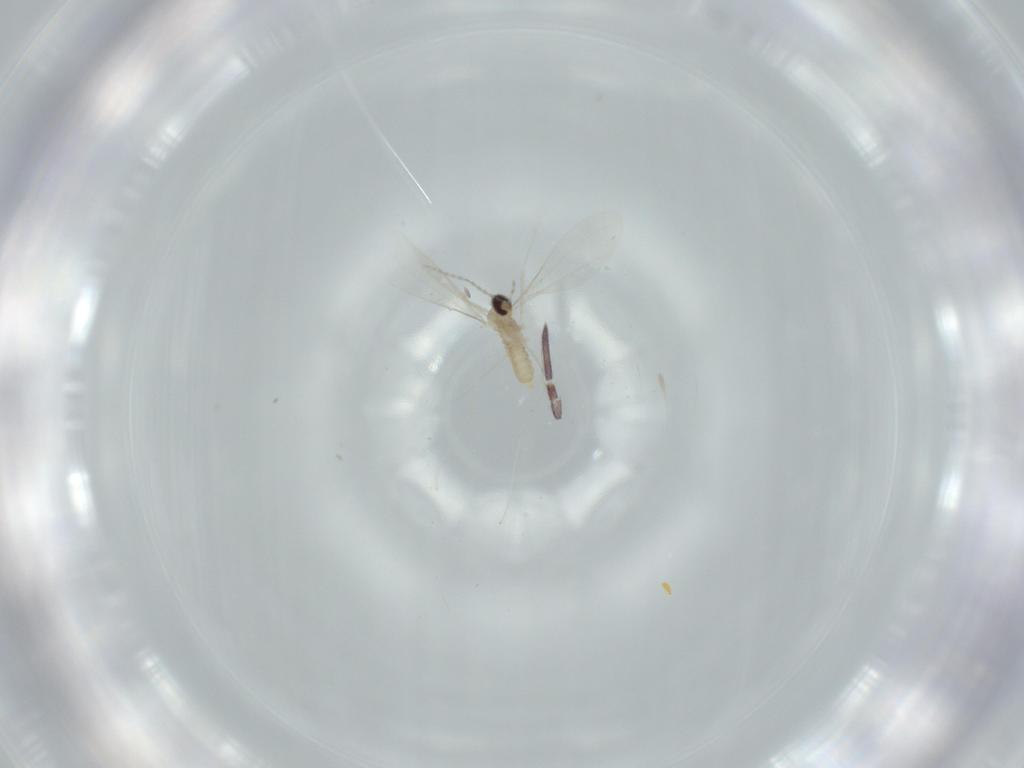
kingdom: Animalia
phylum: Arthropoda
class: Insecta
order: Diptera
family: Cecidomyiidae
